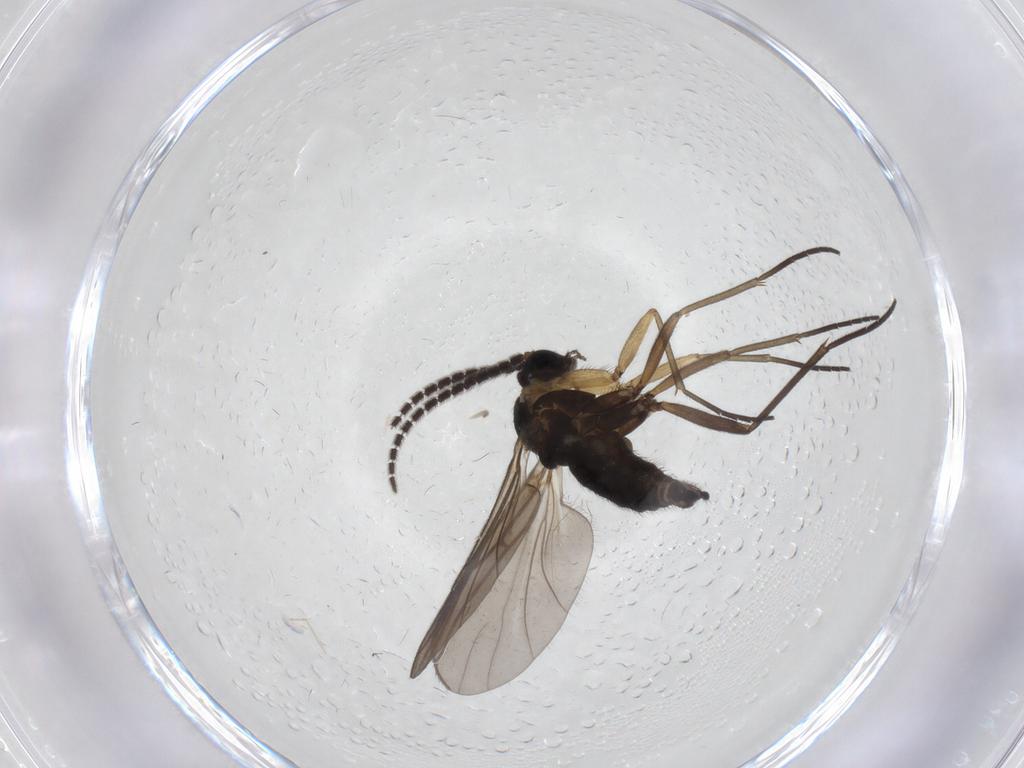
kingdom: Animalia
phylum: Arthropoda
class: Insecta
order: Diptera
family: Sciaridae
